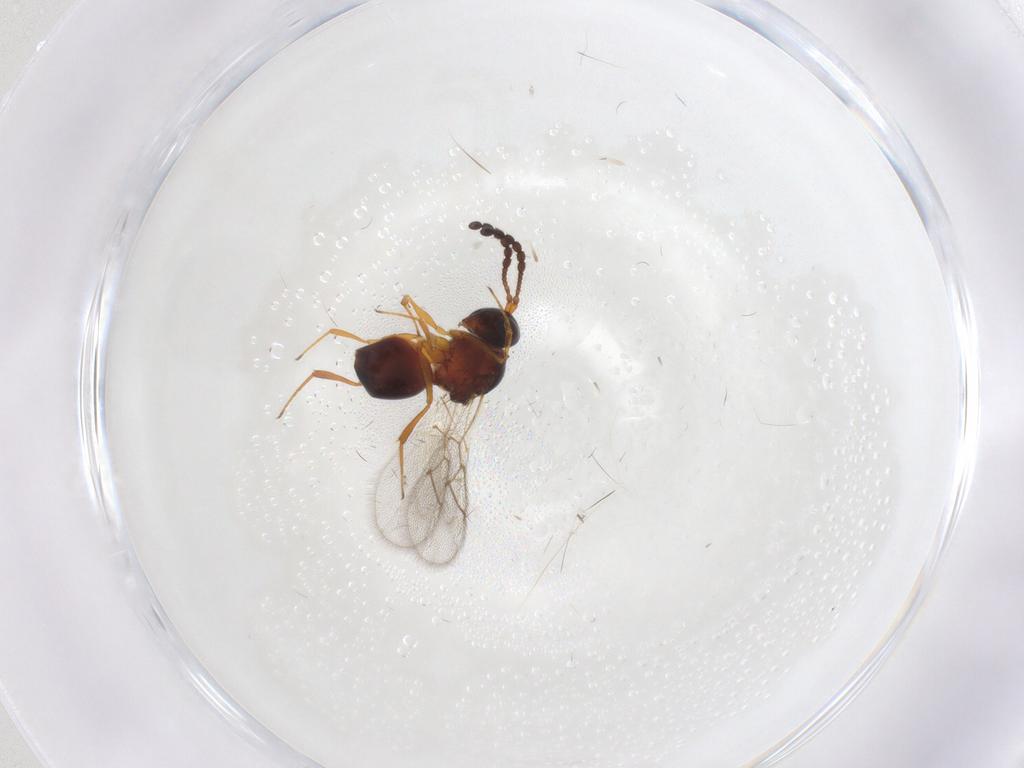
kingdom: Animalia
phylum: Arthropoda
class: Insecta
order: Hymenoptera
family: Figitidae
